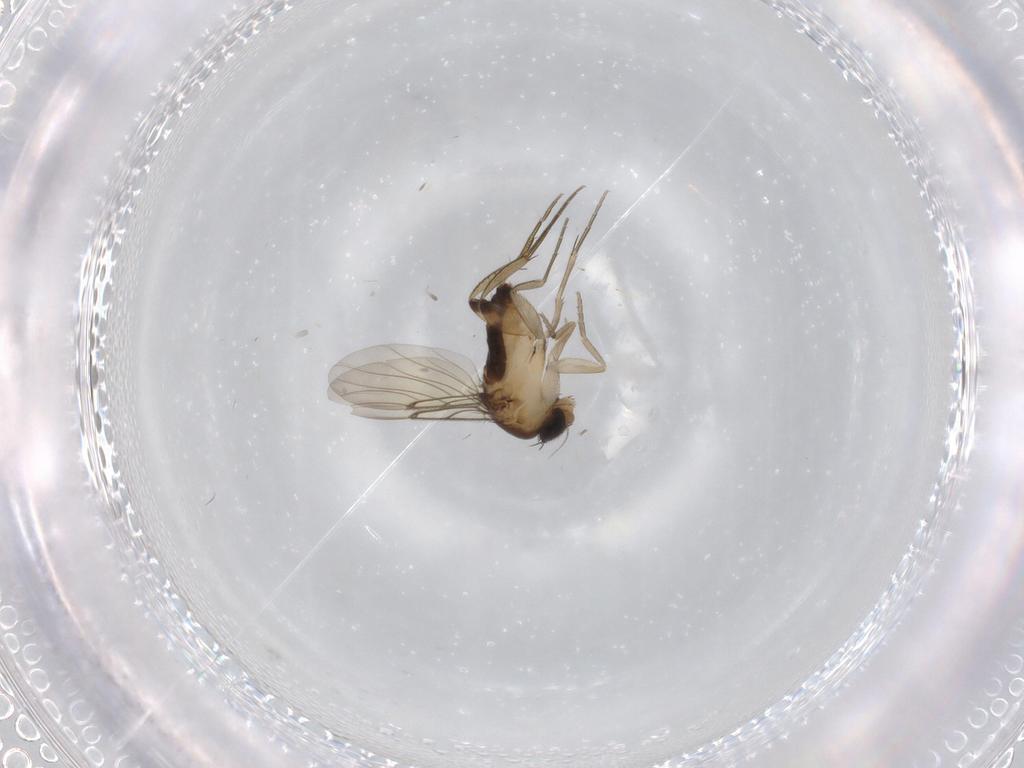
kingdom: Animalia
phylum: Arthropoda
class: Insecta
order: Diptera
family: Phoridae
